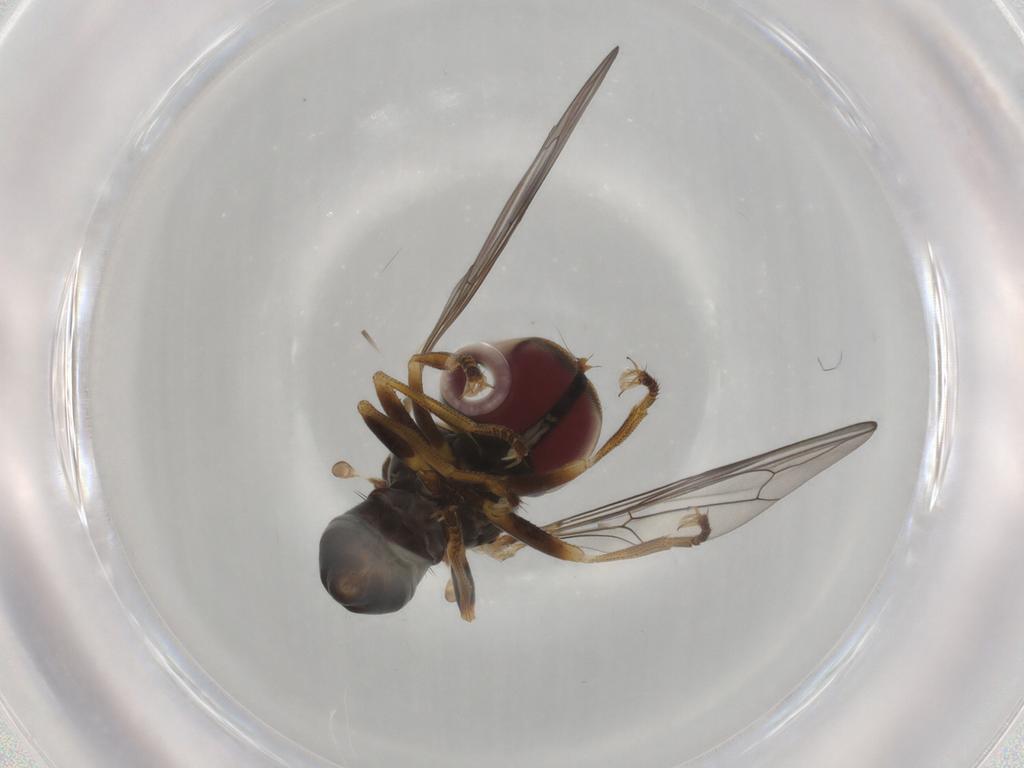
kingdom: Animalia
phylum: Arthropoda
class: Insecta
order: Diptera
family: Pipunculidae
